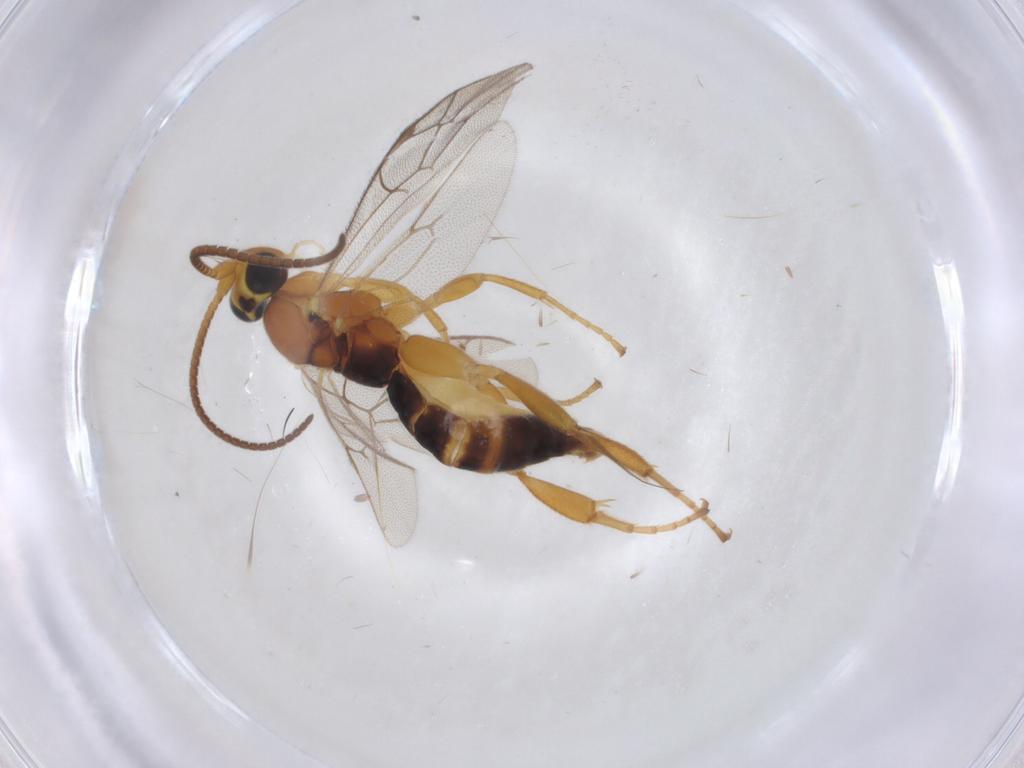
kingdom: Animalia
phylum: Arthropoda
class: Insecta
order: Hymenoptera
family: Ichneumonidae
